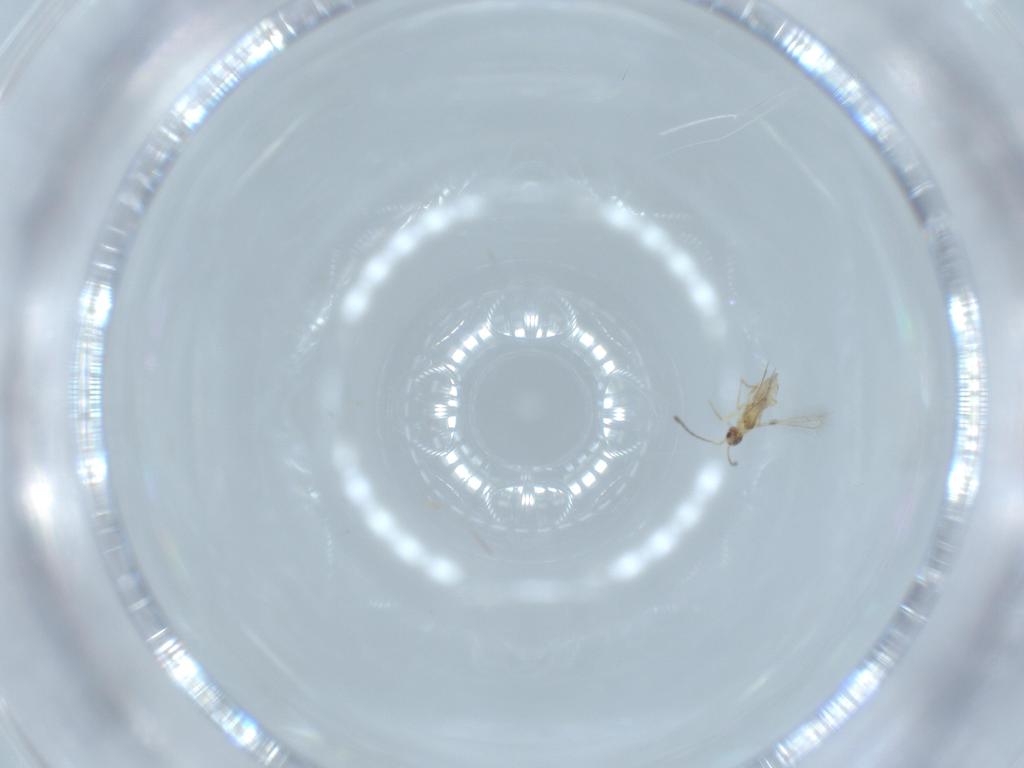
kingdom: Animalia
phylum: Arthropoda
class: Insecta
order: Hymenoptera
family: Mymaridae
